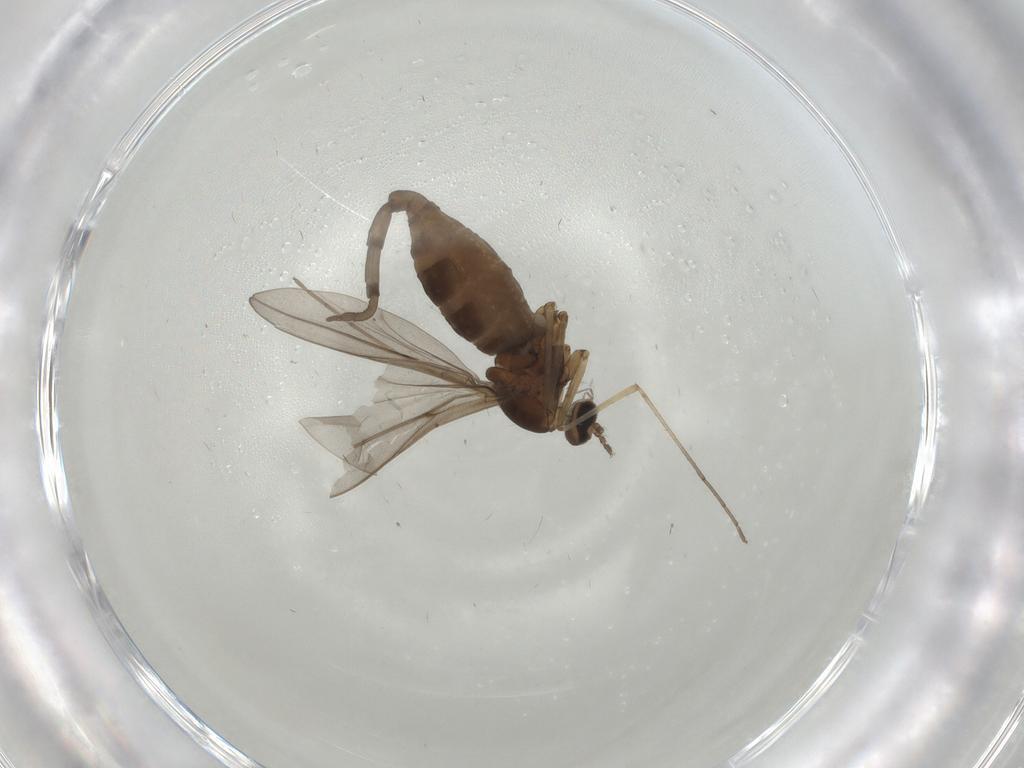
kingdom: Animalia
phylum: Arthropoda
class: Insecta
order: Diptera
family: Cecidomyiidae
